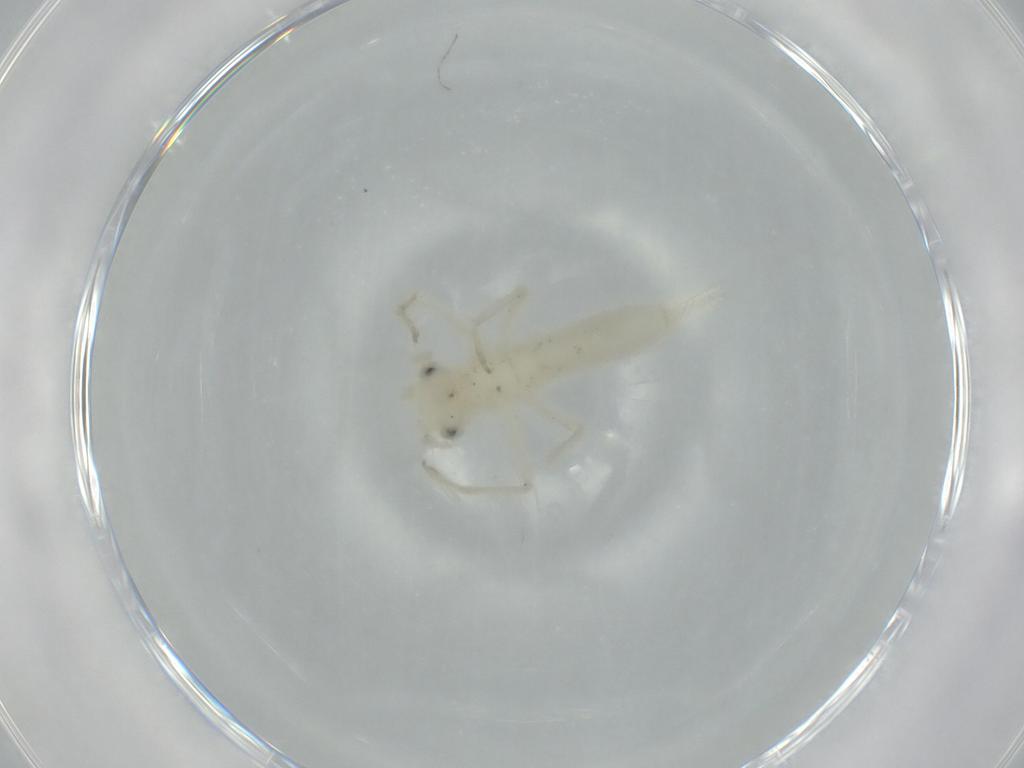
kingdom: Animalia
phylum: Arthropoda
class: Insecta
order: Orthoptera
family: Trigonidiidae
